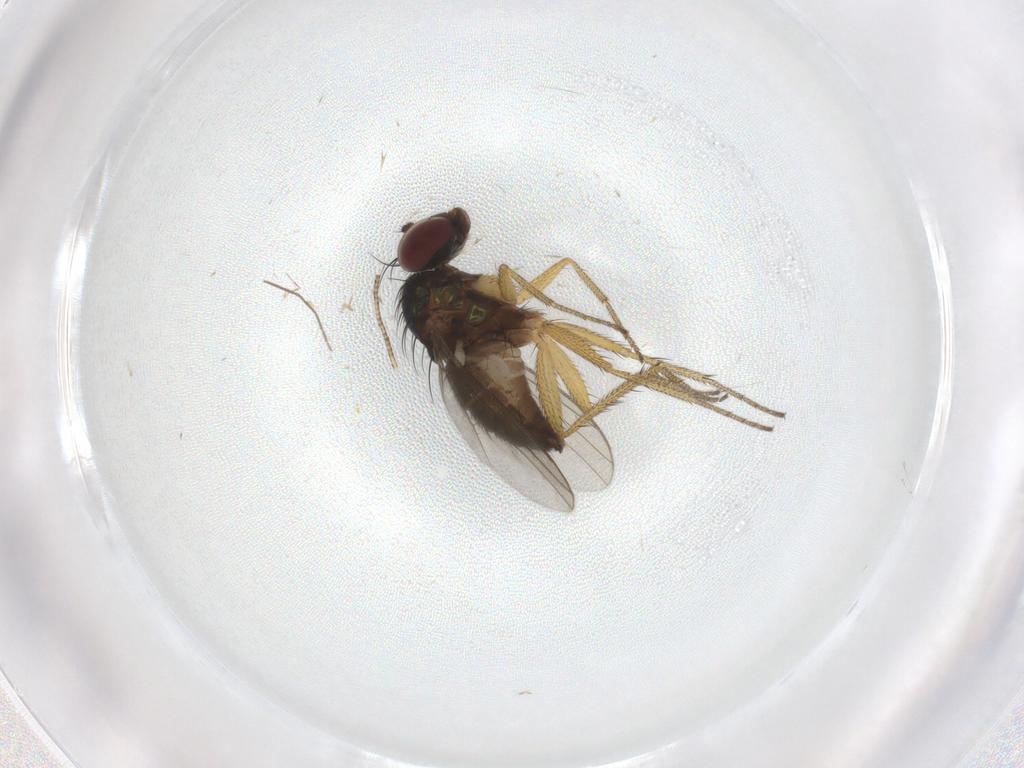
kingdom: Animalia
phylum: Arthropoda
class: Insecta
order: Diptera
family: Dolichopodidae
